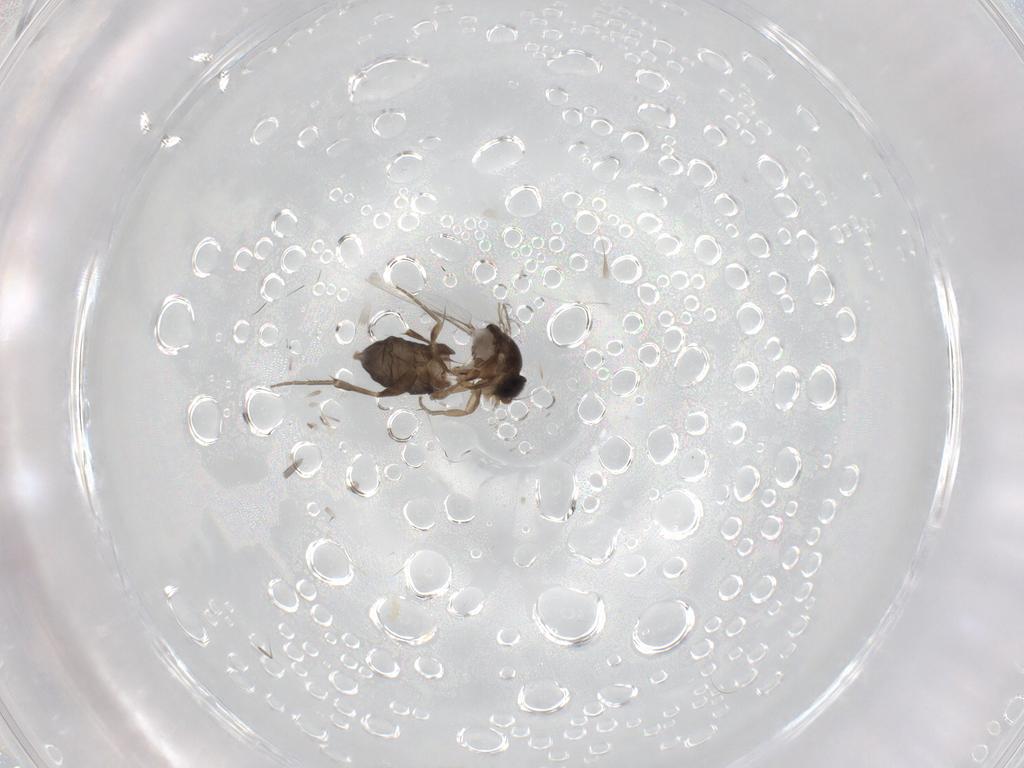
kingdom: Animalia
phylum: Arthropoda
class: Insecta
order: Diptera
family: Phoridae
